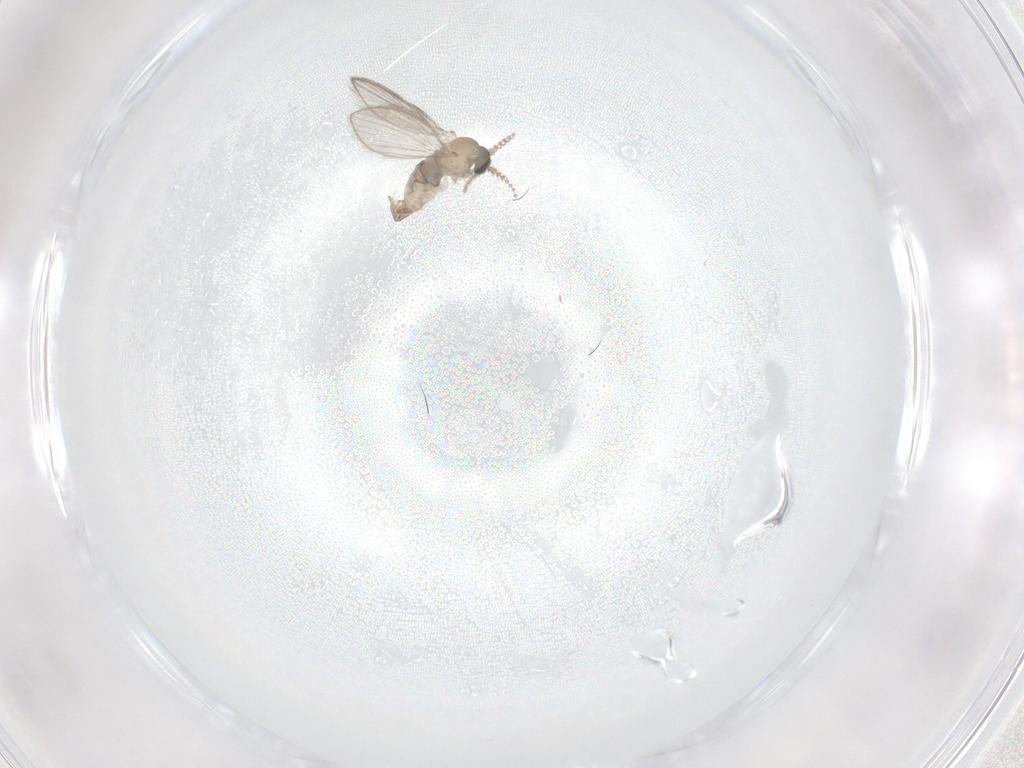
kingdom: Animalia
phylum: Arthropoda
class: Insecta
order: Diptera
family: Psychodidae
